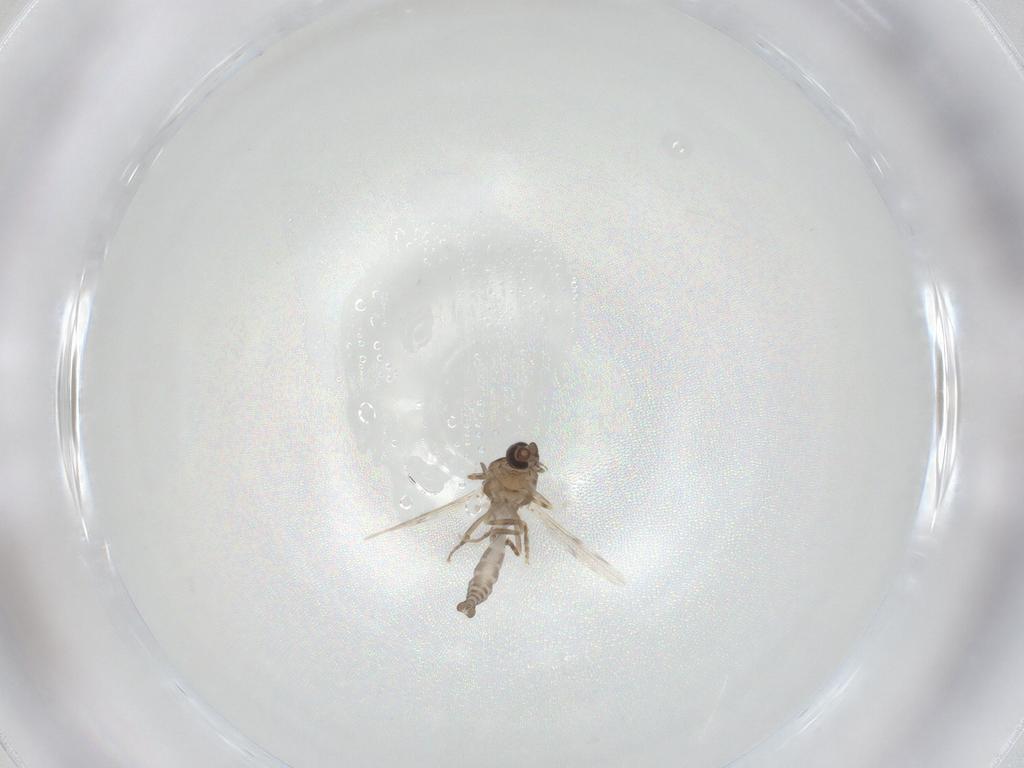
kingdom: Animalia
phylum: Arthropoda
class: Insecta
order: Diptera
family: Ceratopogonidae
